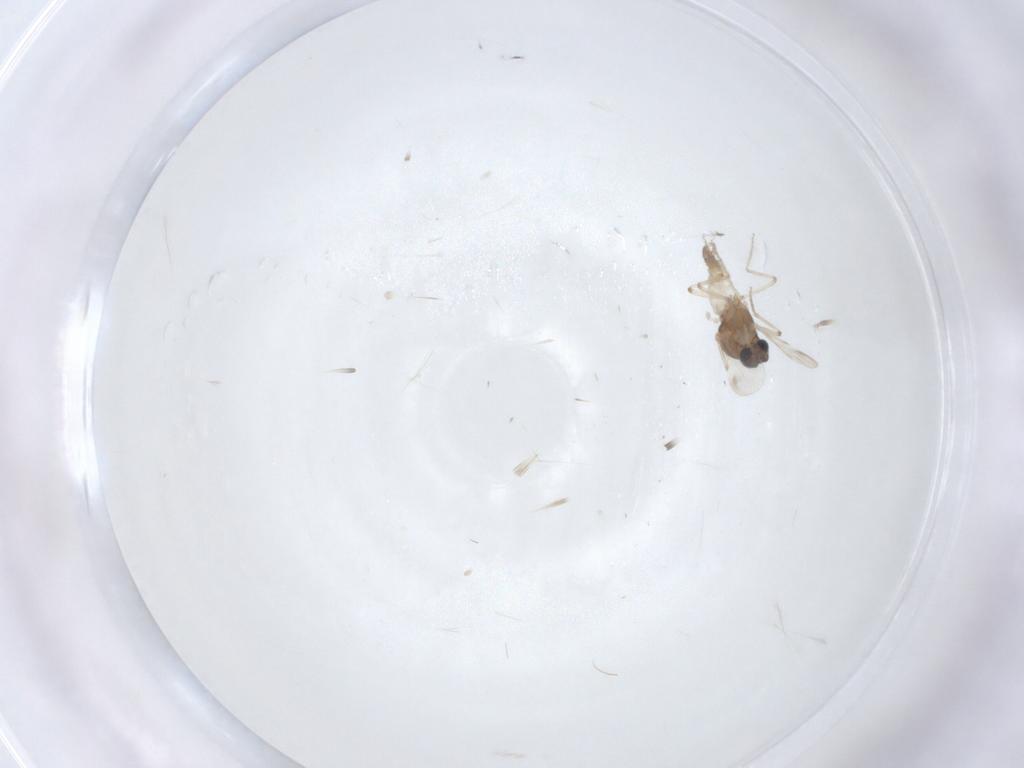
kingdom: Animalia
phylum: Arthropoda
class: Insecta
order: Diptera
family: Ceratopogonidae
